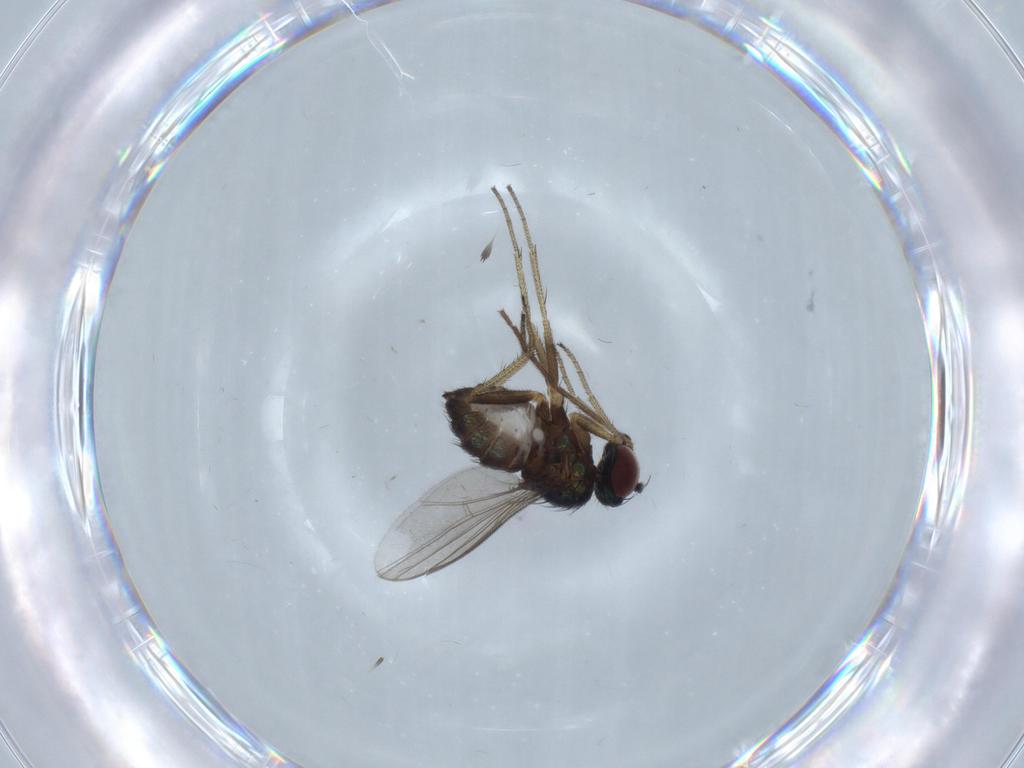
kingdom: Animalia
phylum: Arthropoda
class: Insecta
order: Diptera
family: Dolichopodidae
